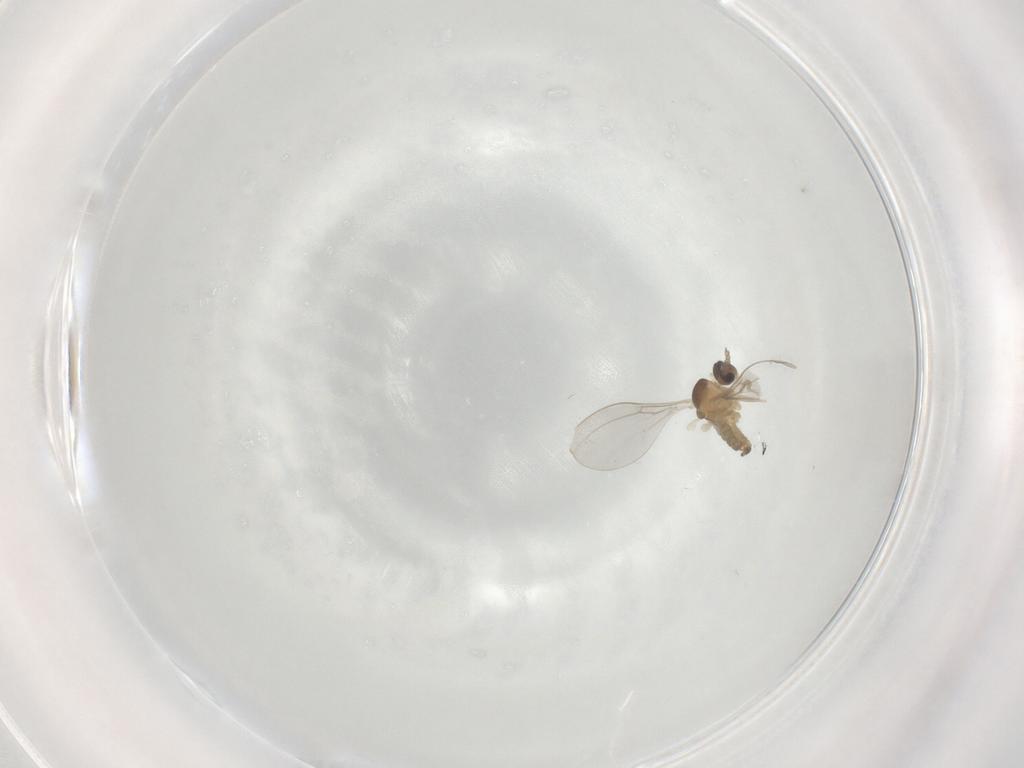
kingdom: Animalia
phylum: Arthropoda
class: Insecta
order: Diptera
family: Cecidomyiidae
